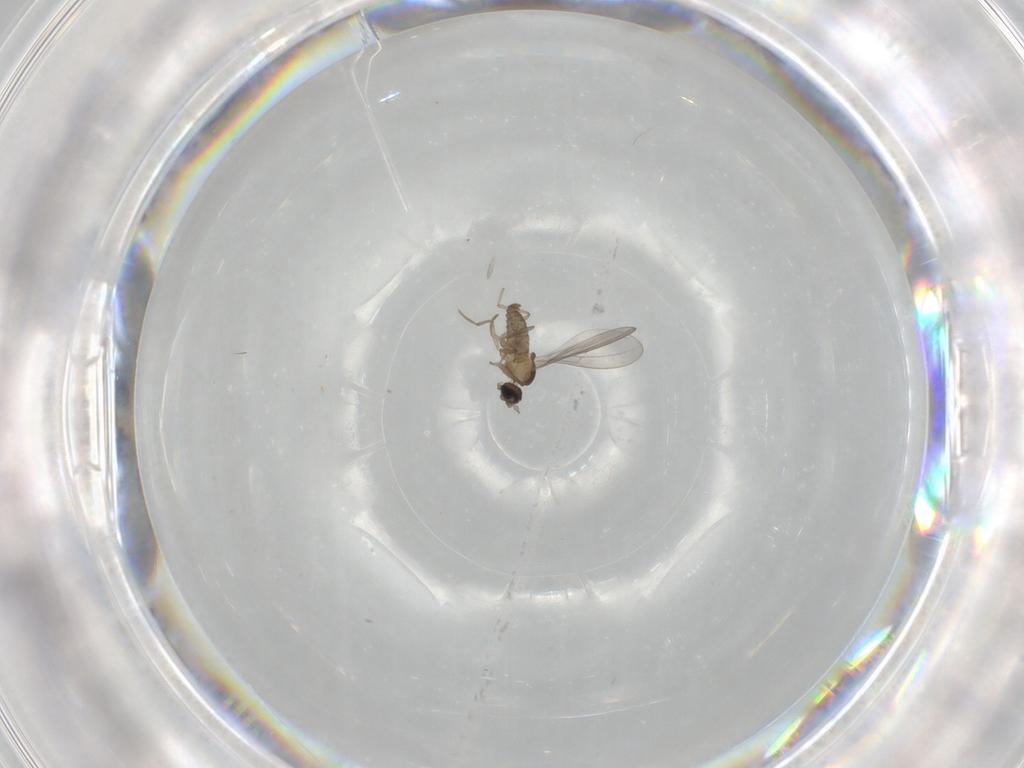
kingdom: Animalia
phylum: Arthropoda
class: Insecta
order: Diptera
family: Cecidomyiidae
